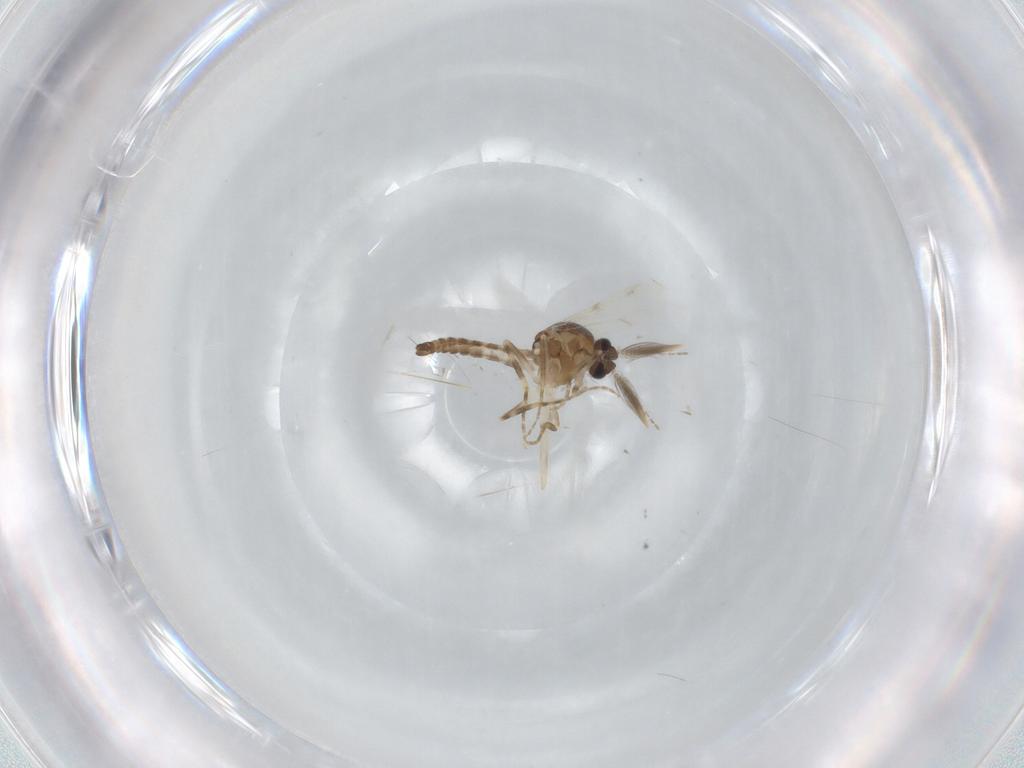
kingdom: Animalia
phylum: Arthropoda
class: Insecta
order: Diptera
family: Ceratopogonidae
